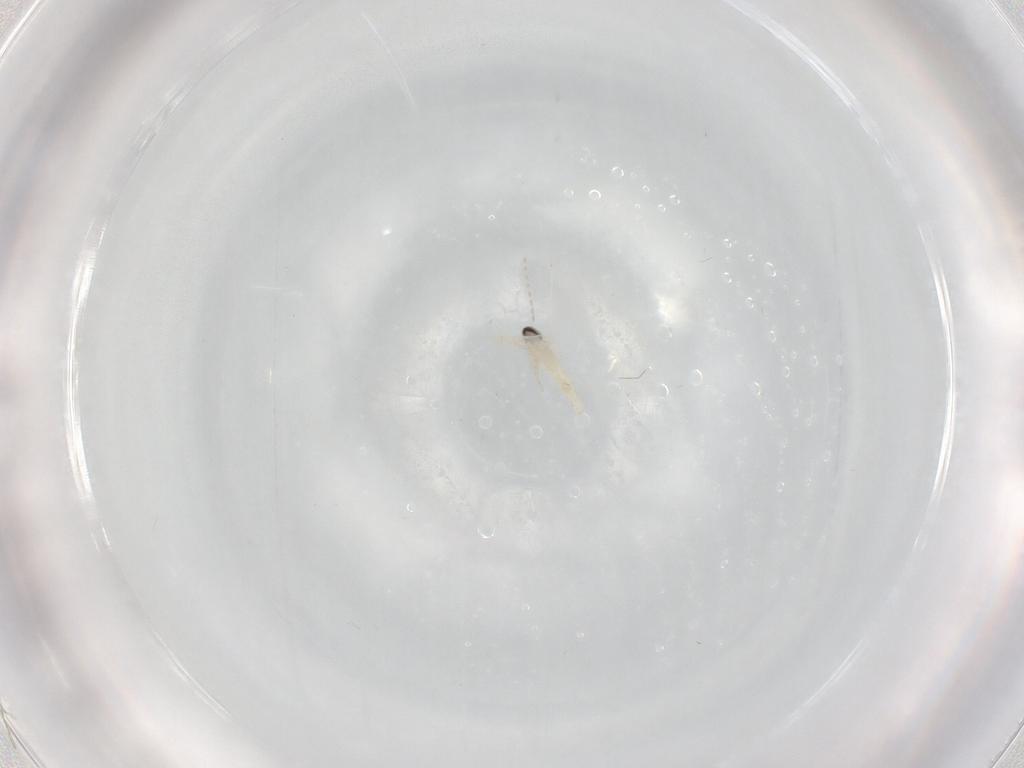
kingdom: Animalia
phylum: Arthropoda
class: Insecta
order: Diptera
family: Cecidomyiidae
